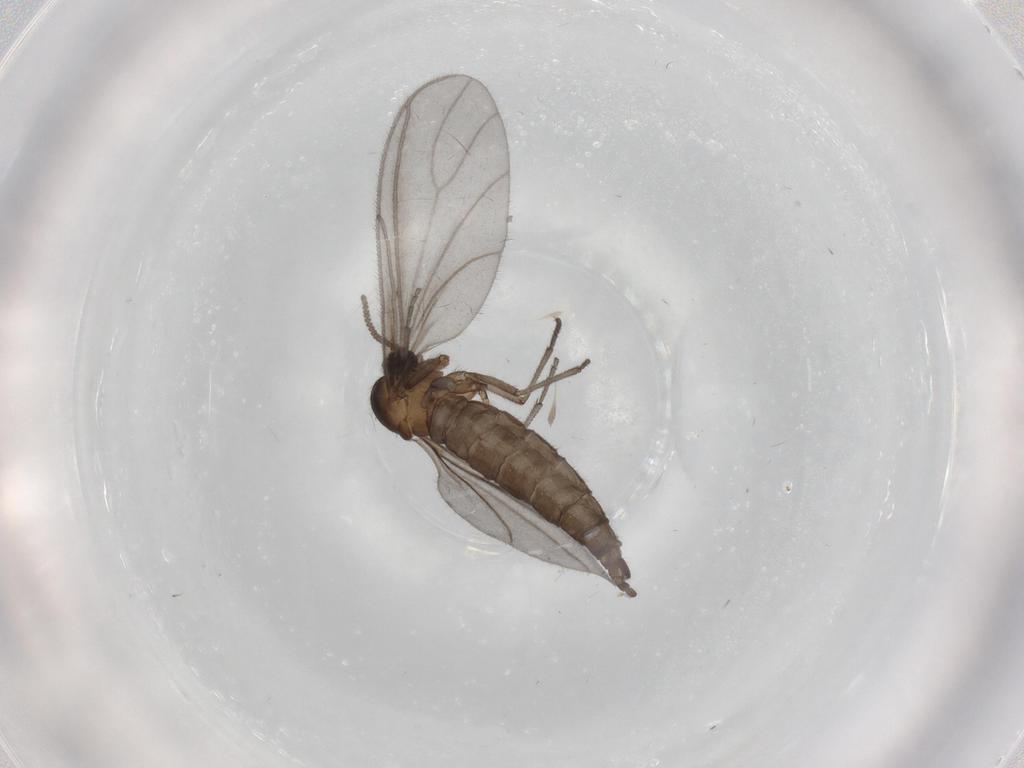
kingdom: Animalia
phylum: Arthropoda
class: Insecta
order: Diptera
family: Sciaridae
